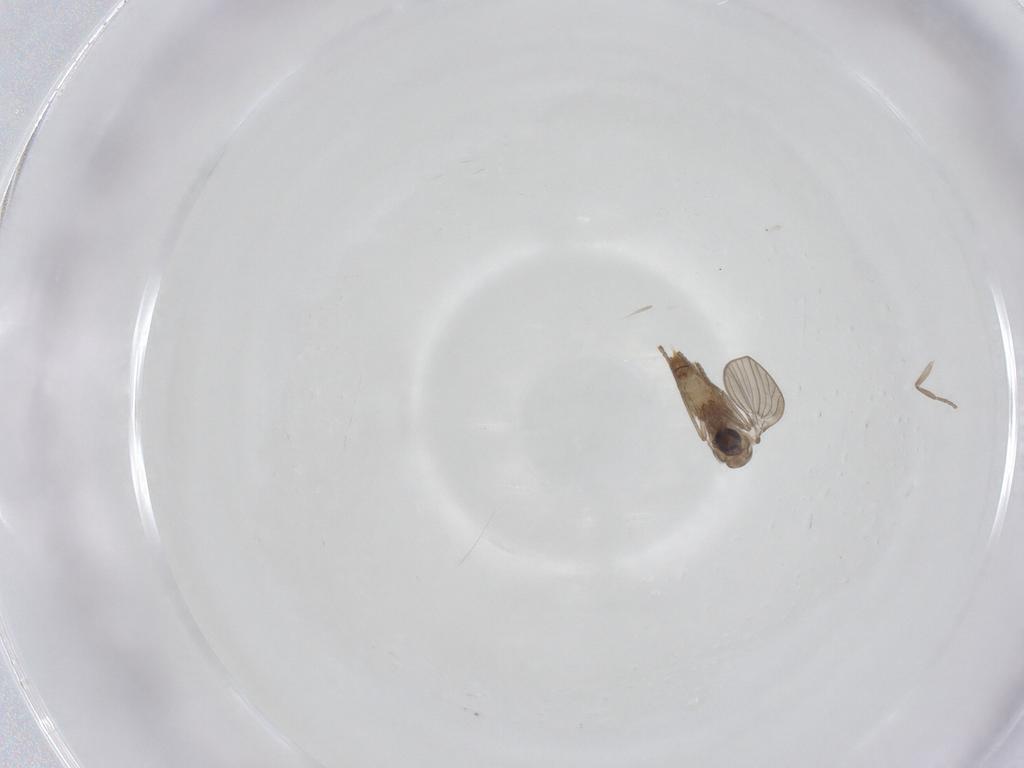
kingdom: Animalia
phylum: Arthropoda
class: Insecta
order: Diptera
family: Psychodidae
